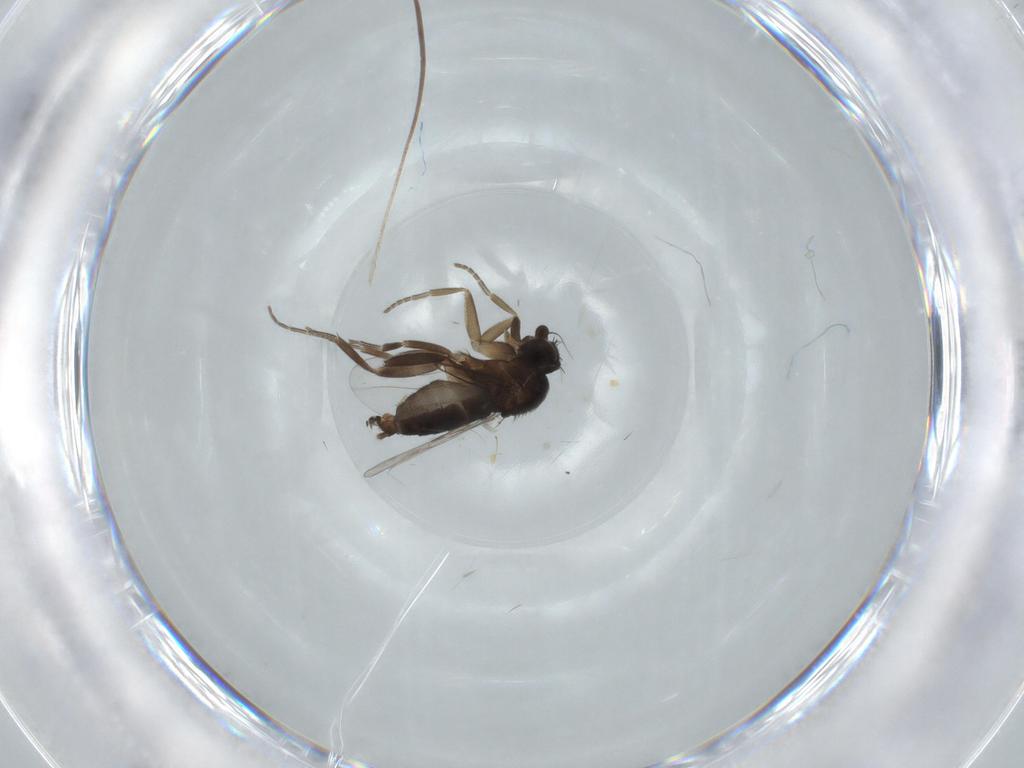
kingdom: Animalia
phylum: Arthropoda
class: Insecta
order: Diptera
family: Phoridae
